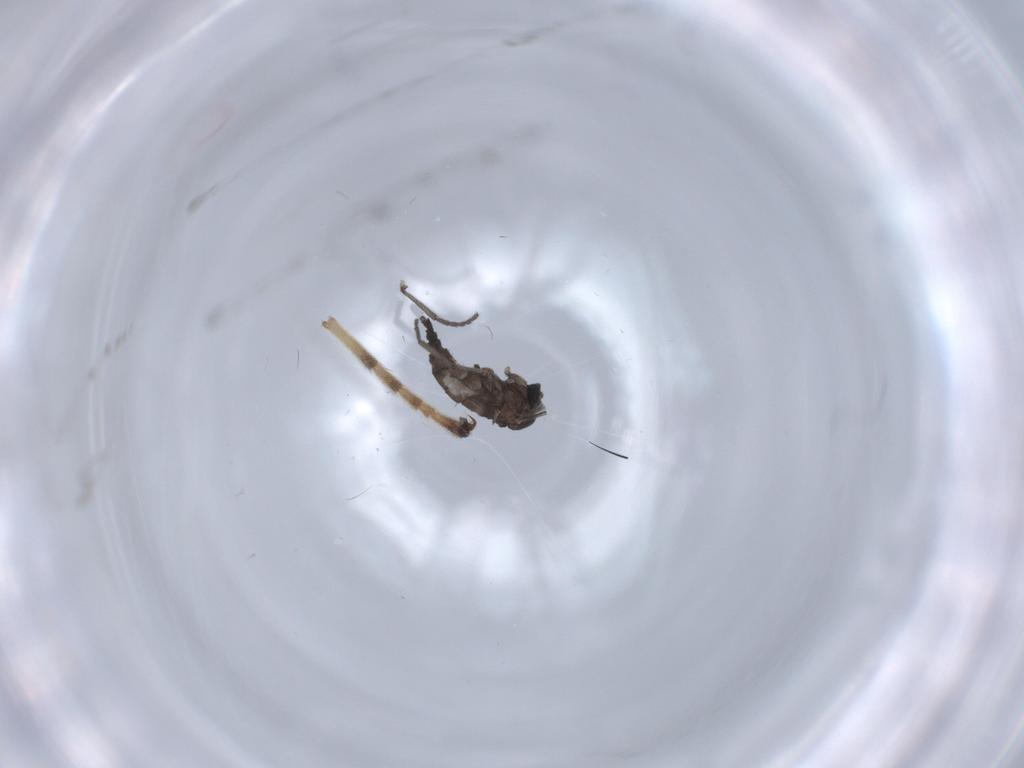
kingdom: Animalia
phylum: Arthropoda
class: Insecta
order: Diptera
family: Sciaridae
